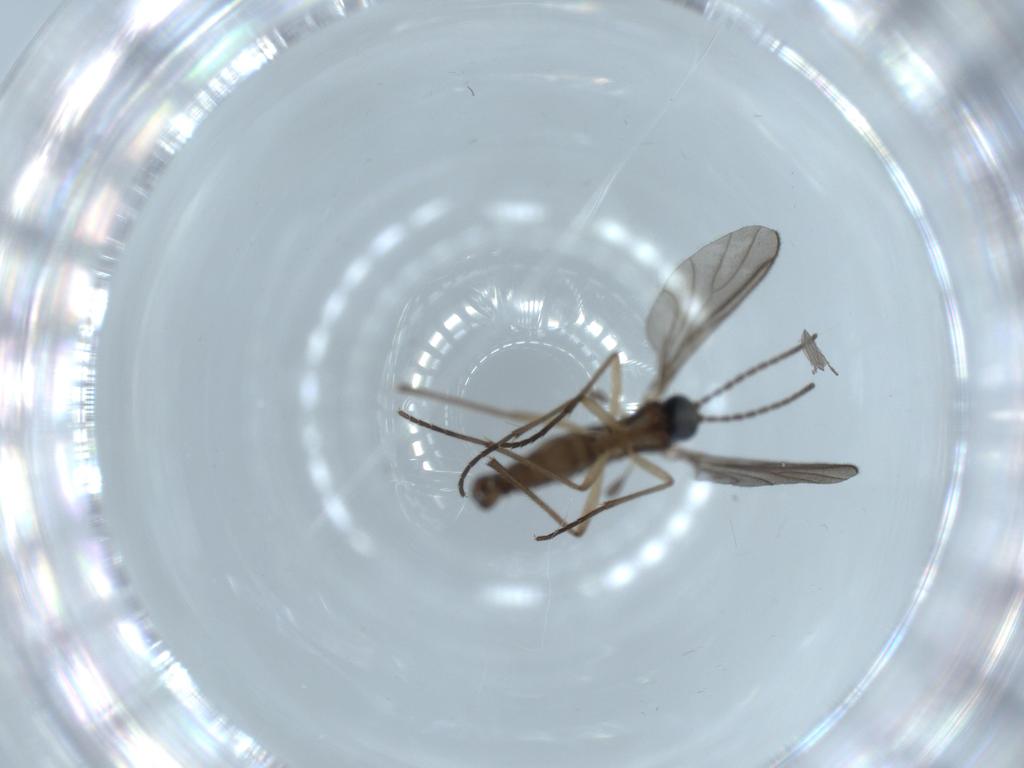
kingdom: Animalia
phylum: Arthropoda
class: Insecta
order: Diptera
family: Sciaridae
